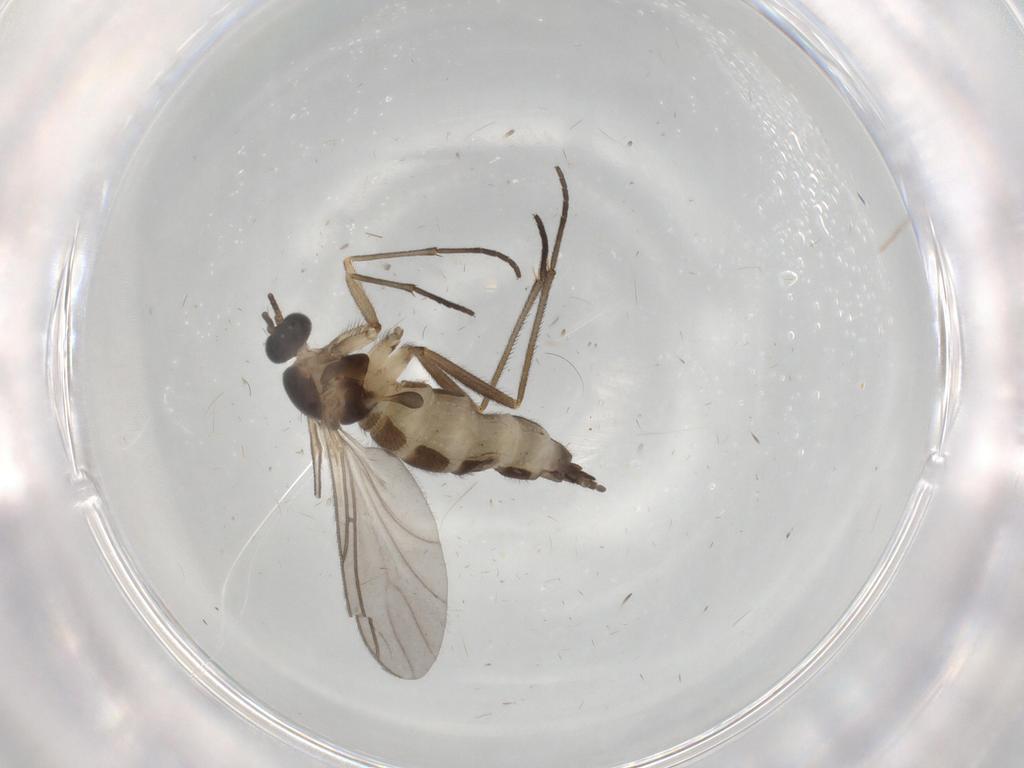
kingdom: Animalia
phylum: Arthropoda
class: Insecta
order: Diptera
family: Sciaridae
